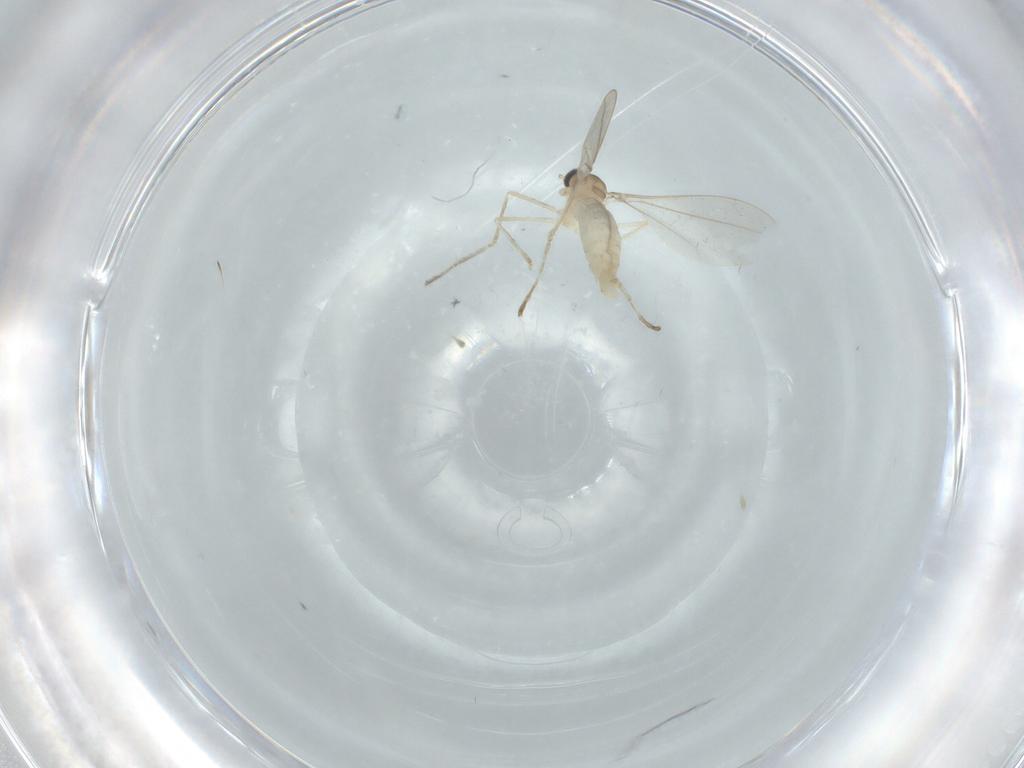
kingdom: Animalia
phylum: Arthropoda
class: Insecta
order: Diptera
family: Cecidomyiidae
